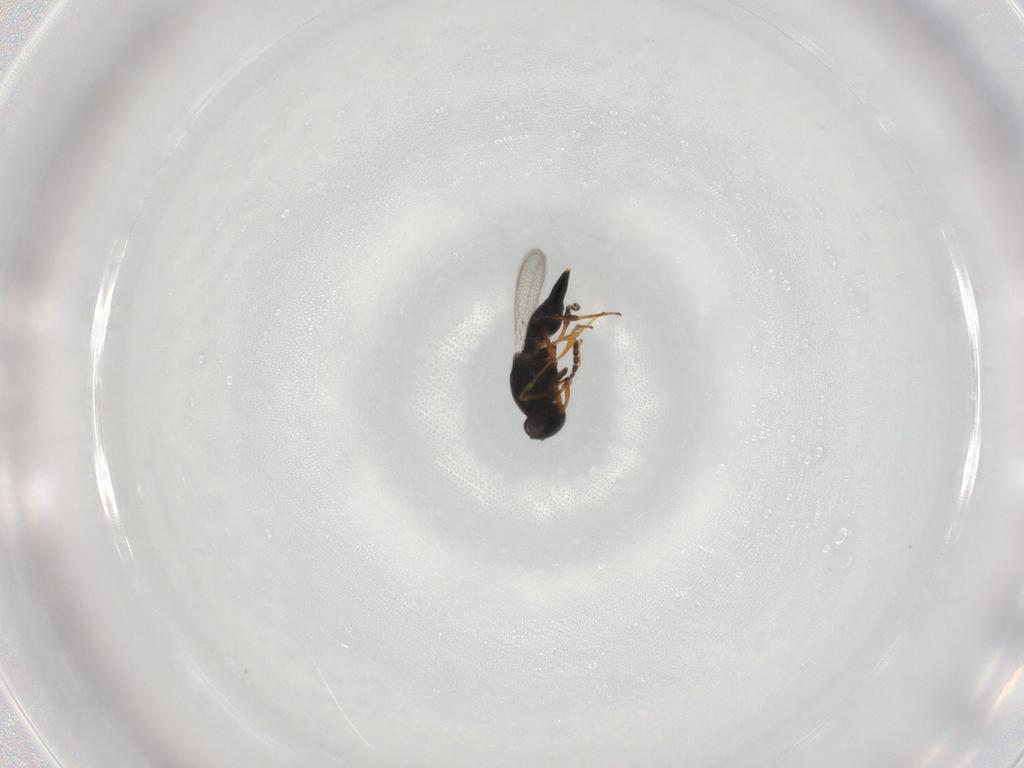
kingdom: Animalia
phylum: Arthropoda
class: Insecta
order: Hymenoptera
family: Platygastridae
